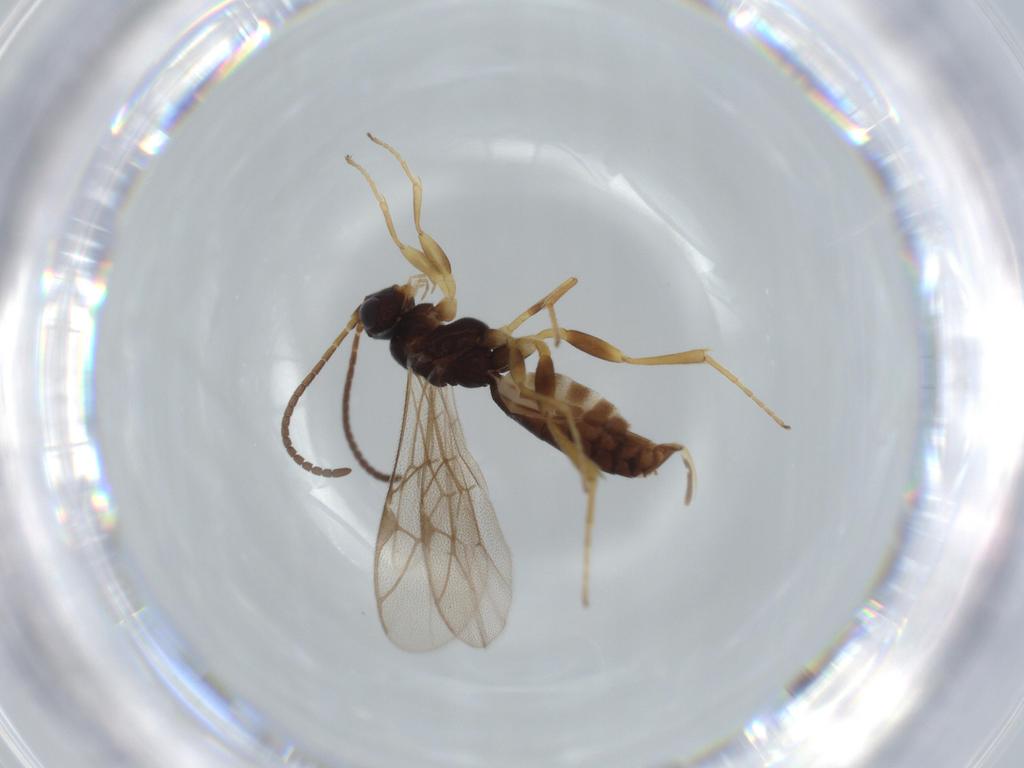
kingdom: Animalia
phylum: Arthropoda
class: Insecta
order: Hymenoptera
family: Ichneumonidae
